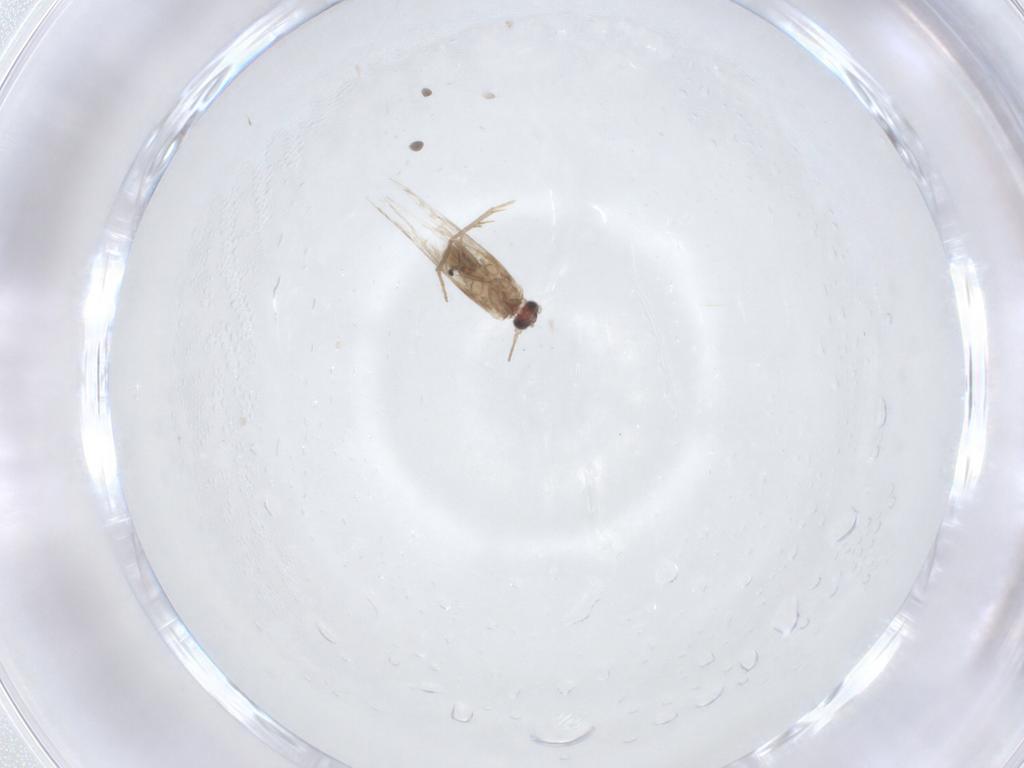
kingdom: Animalia
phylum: Arthropoda
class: Insecta
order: Lepidoptera
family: Nepticulidae
